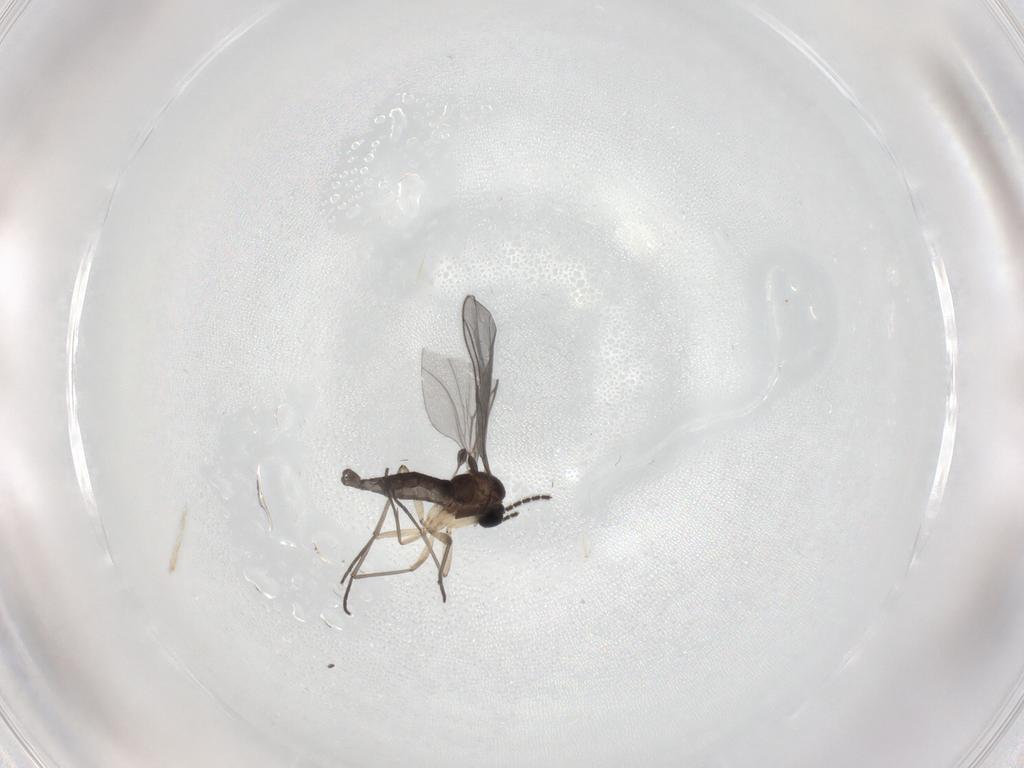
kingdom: Animalia
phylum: Arthropoda
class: Insecta
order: Diptera
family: Sciaridae
